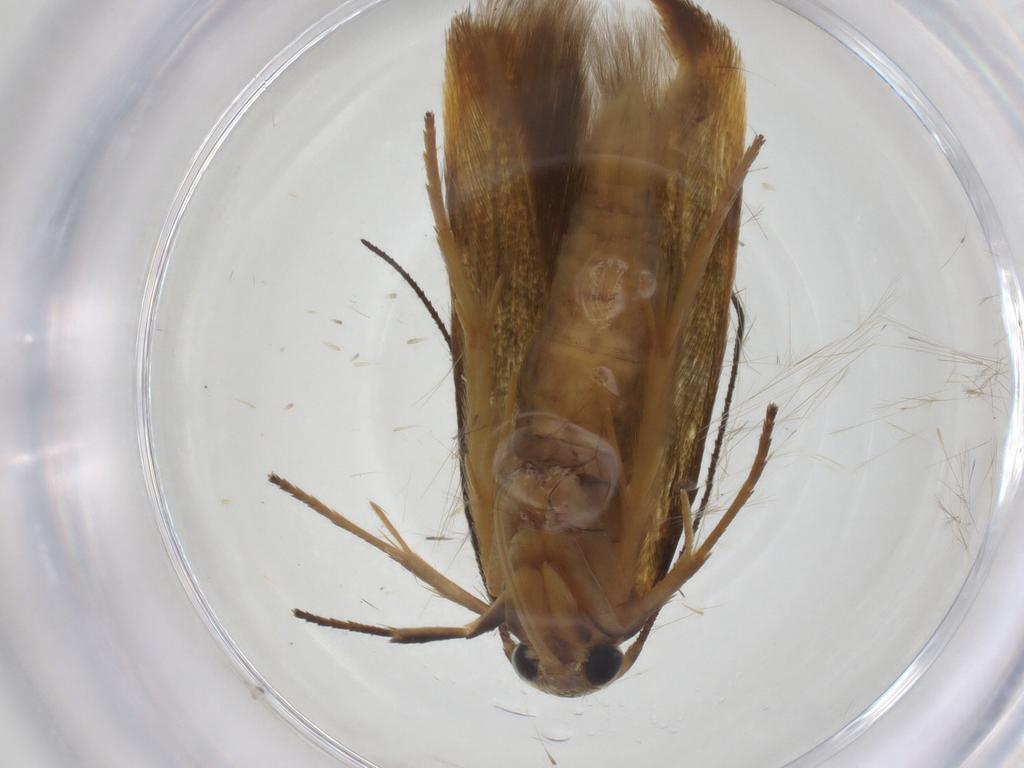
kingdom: Animalia
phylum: Arthropoda
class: Insecta
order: Lepidoptera
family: Stathmopodidae
